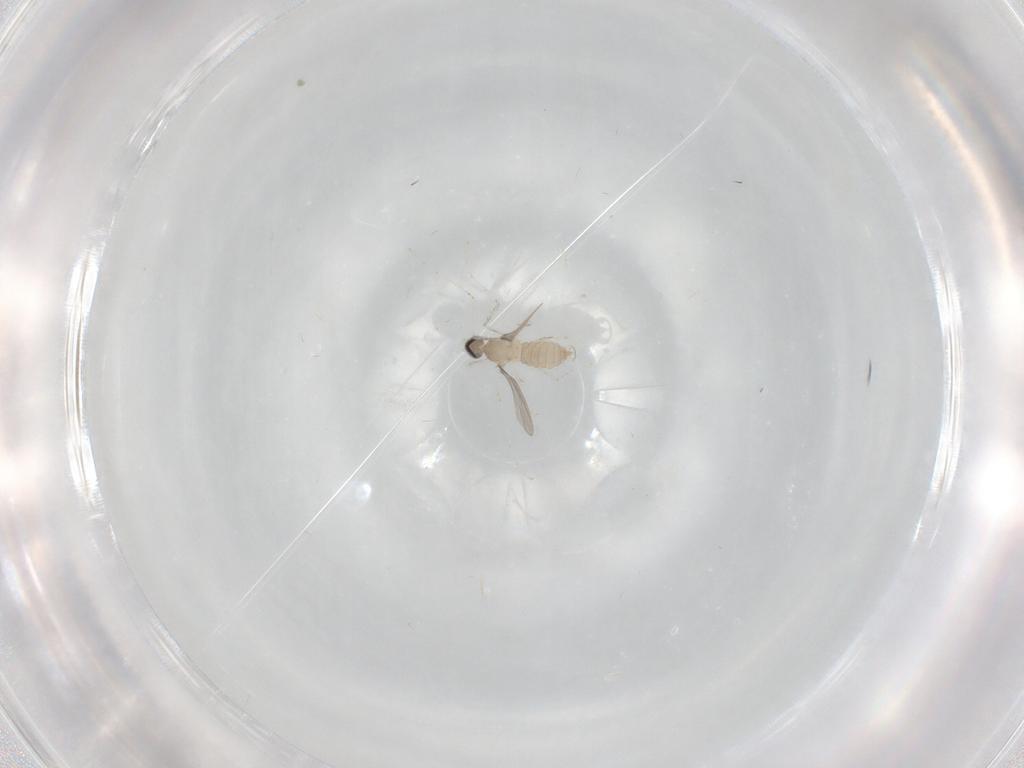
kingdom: Animalia
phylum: Arthropoda
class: Insecta
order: Diptera
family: Cecidomyiidae
